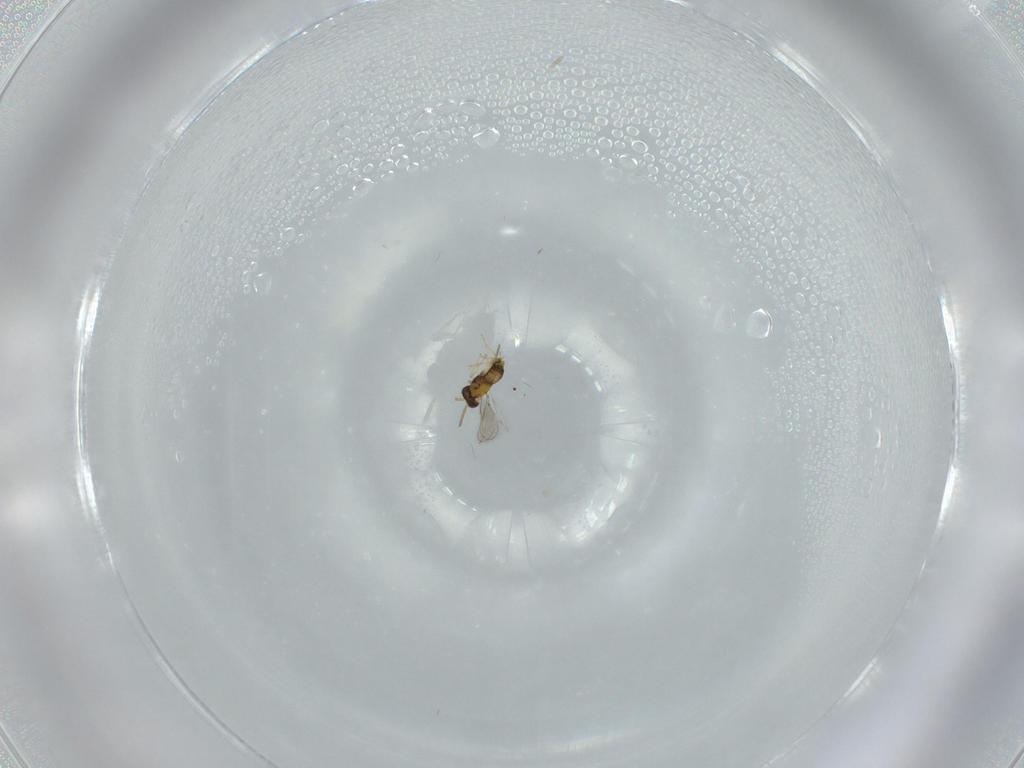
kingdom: Animalia
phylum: Arthropoda
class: Insecta
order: Hymenoptera
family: Aphelinidae
